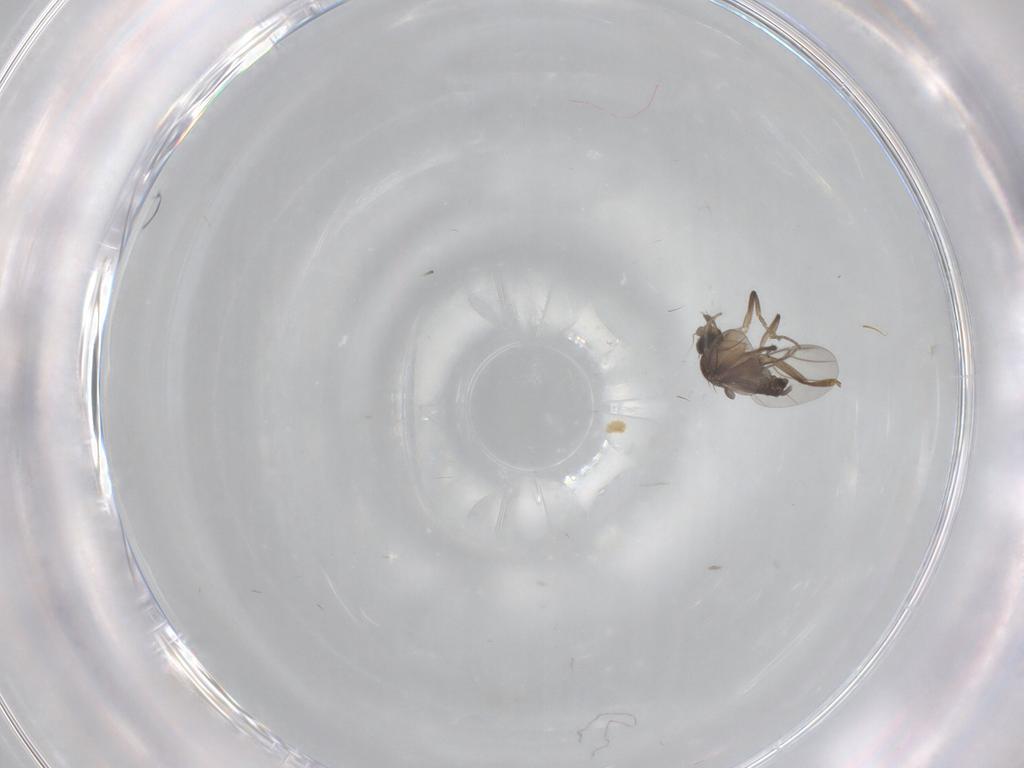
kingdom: Animalia
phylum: Arthropoda
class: Insecta
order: Diptera
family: Phoridae
